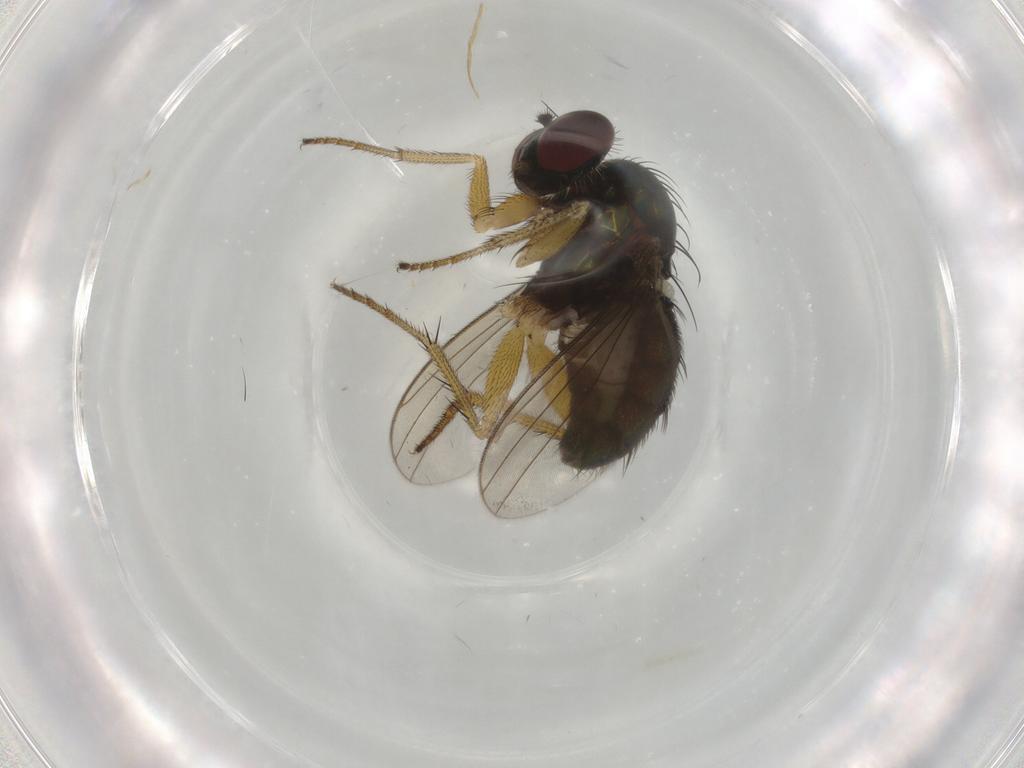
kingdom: Animalia
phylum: Arthropoda
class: Insecta
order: Diptera
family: Dolichopodidae
